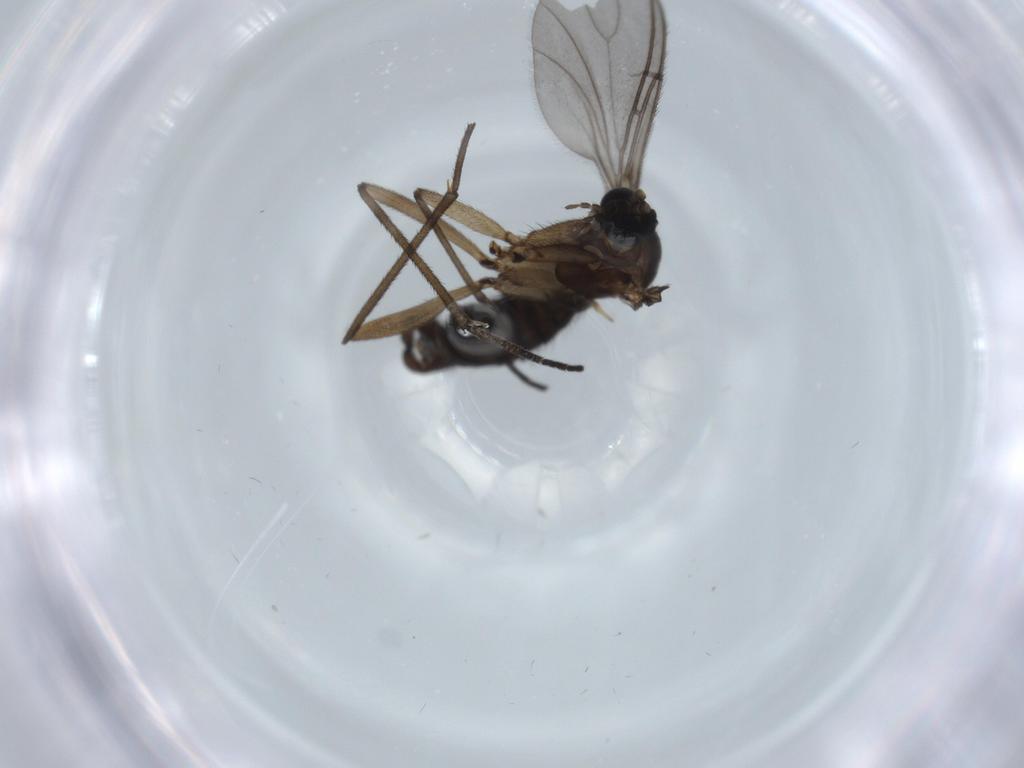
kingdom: Animalia
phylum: Arthropoda
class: Insecta
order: Diptera
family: Sciaridae
